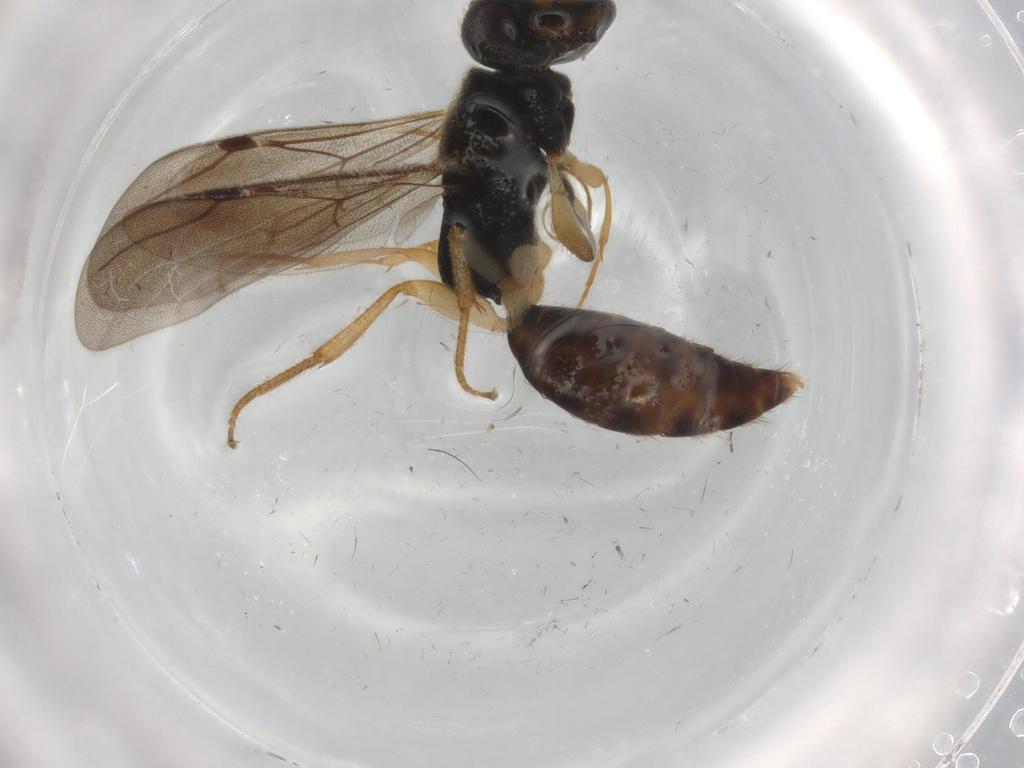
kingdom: Animalia
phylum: Arthropoda
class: Insecta
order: Hymenoptera
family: Bethylidae
